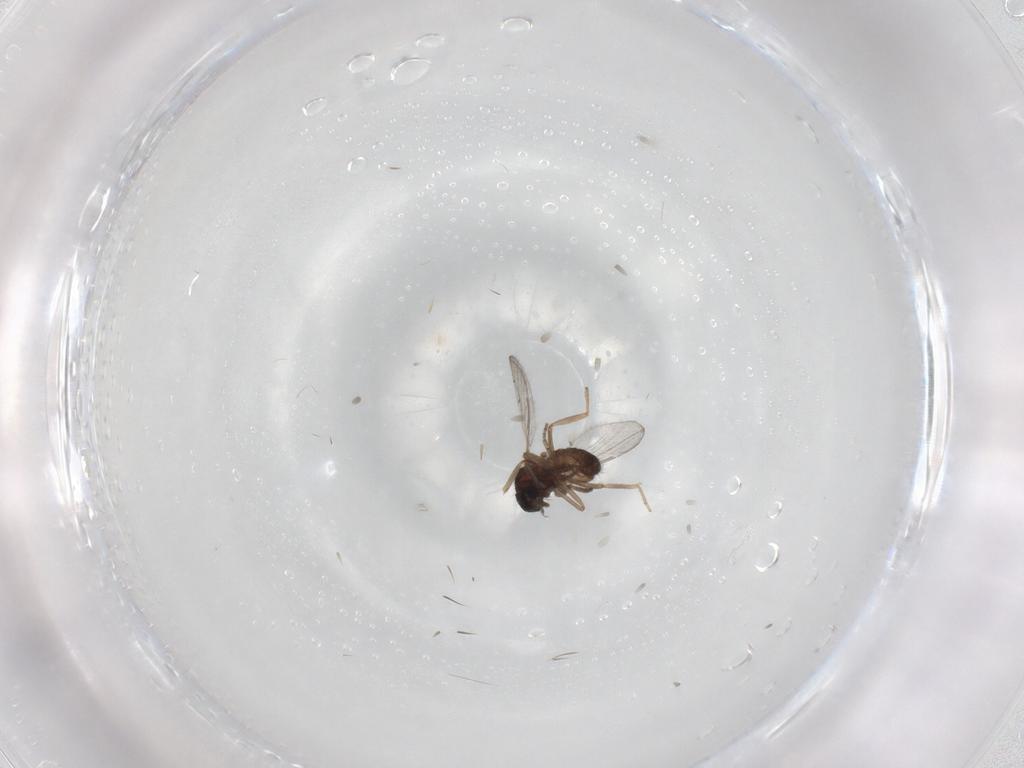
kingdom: Animalia
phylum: Arthropoda
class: Insecta
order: Diptera
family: Ceratopogonidae
